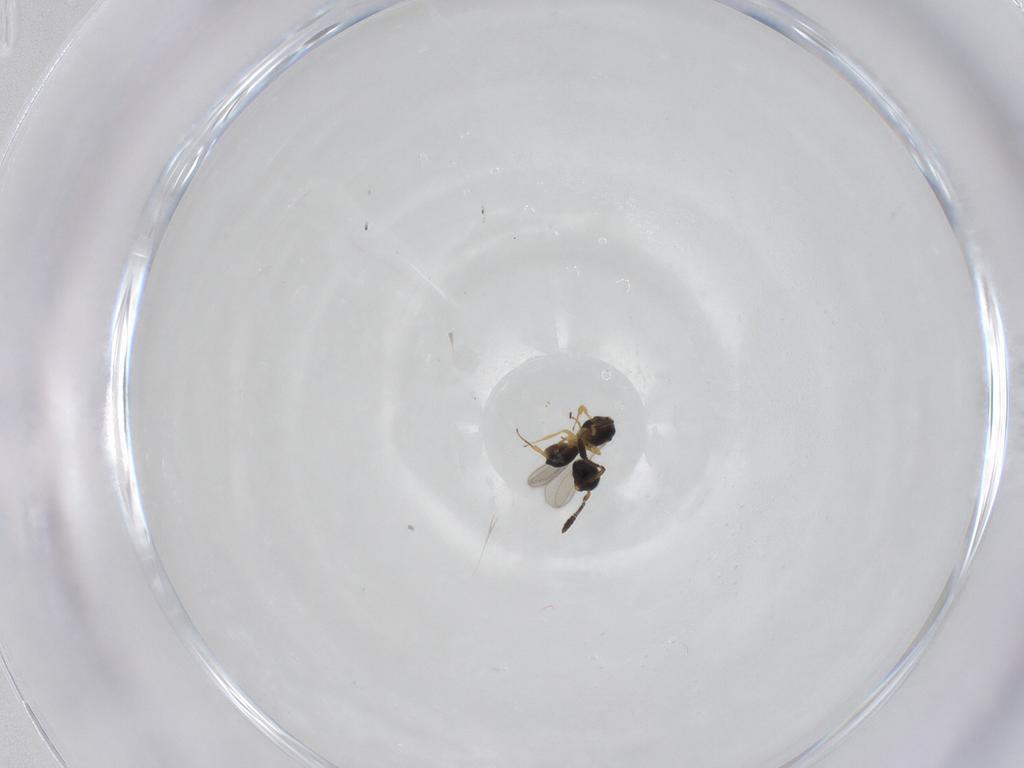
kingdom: Animalia
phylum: Arthropoda
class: Insecta
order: Hymenoptera
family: Scelionidae
